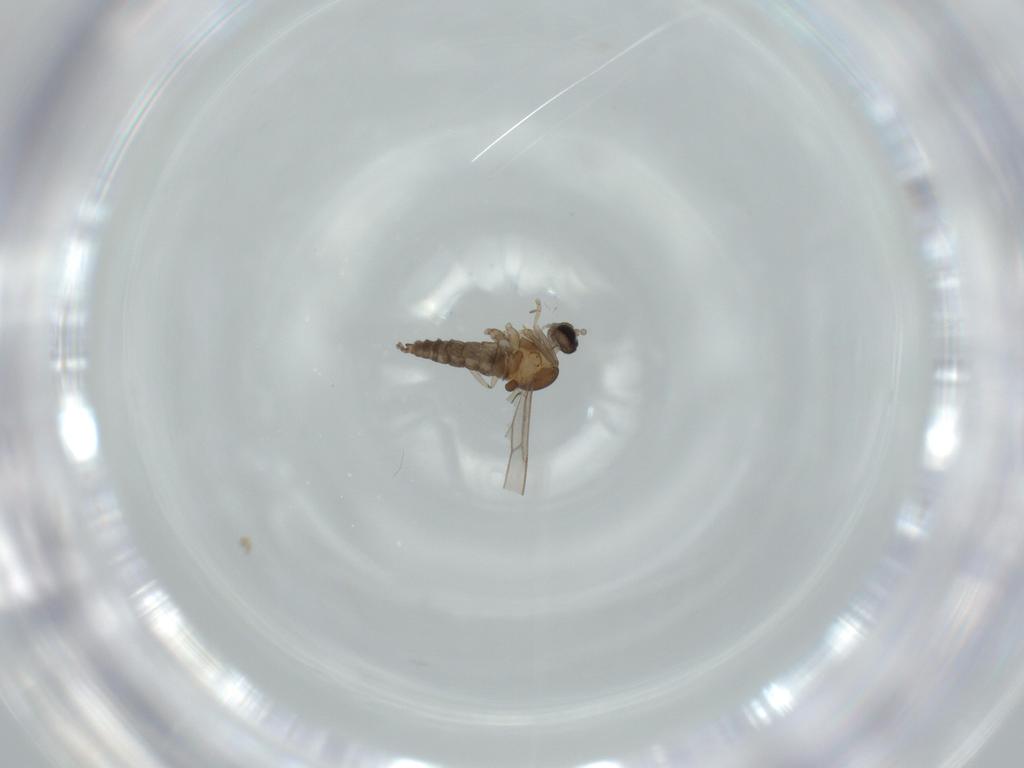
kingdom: Animalia
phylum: Arthropoda
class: Insecta
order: Diptera
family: Cecidomyiidae
